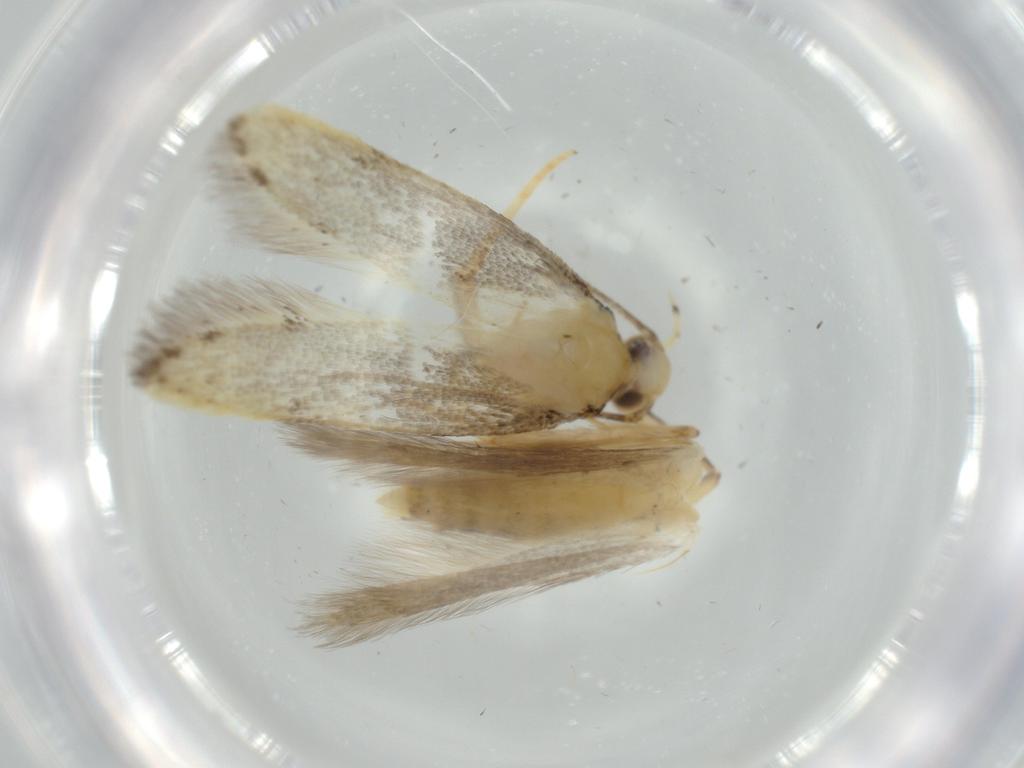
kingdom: Animalia
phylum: Arthropoda
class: Insecta
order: Lepidoptera
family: Autostichidae
